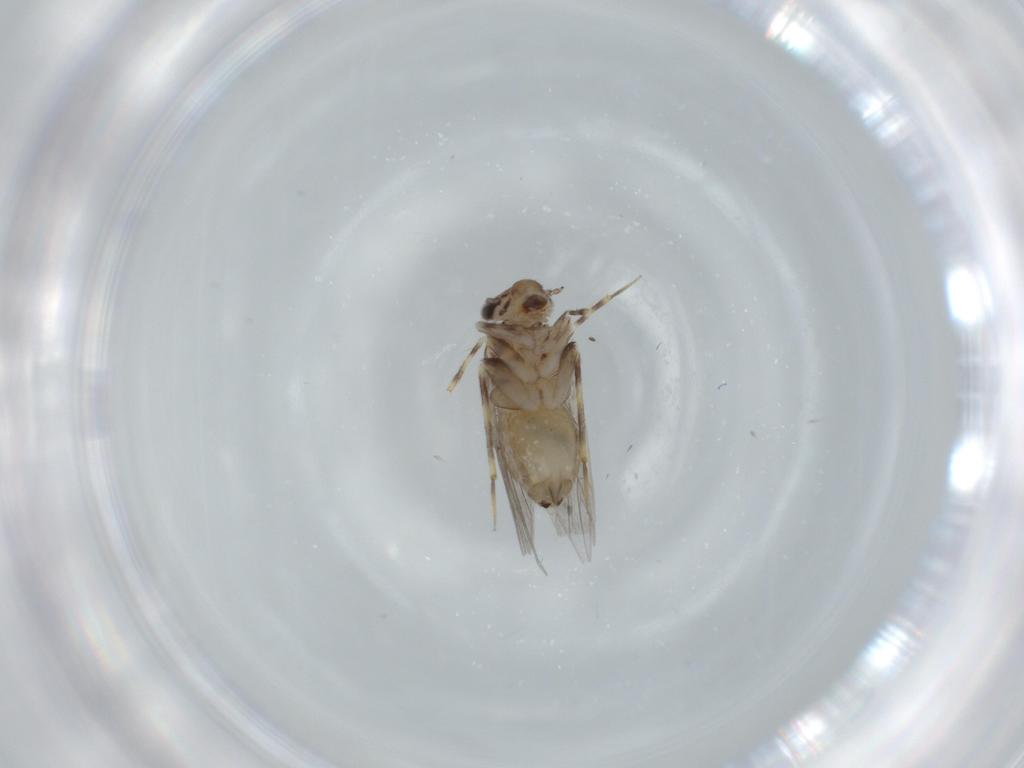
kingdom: Animalia
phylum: Arthropoda
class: Insecta
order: Psocodea
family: Lepidopsocidae
